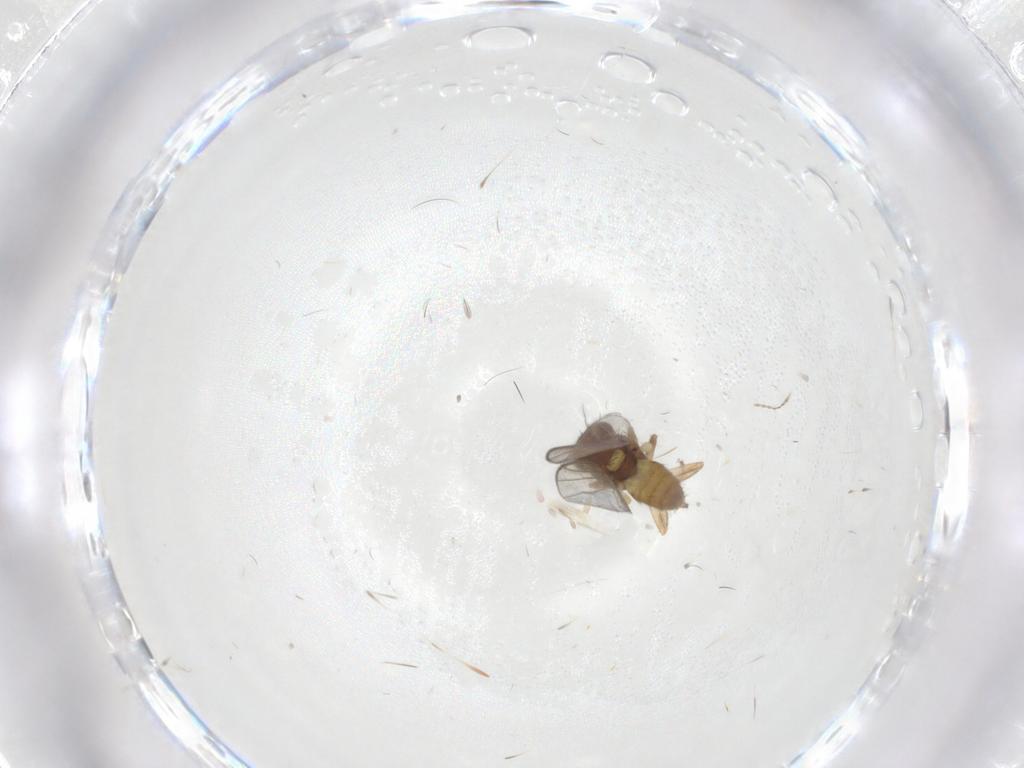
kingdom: Animalia
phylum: Arthropoda
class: Insecta
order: Diptera
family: Chloropidae
